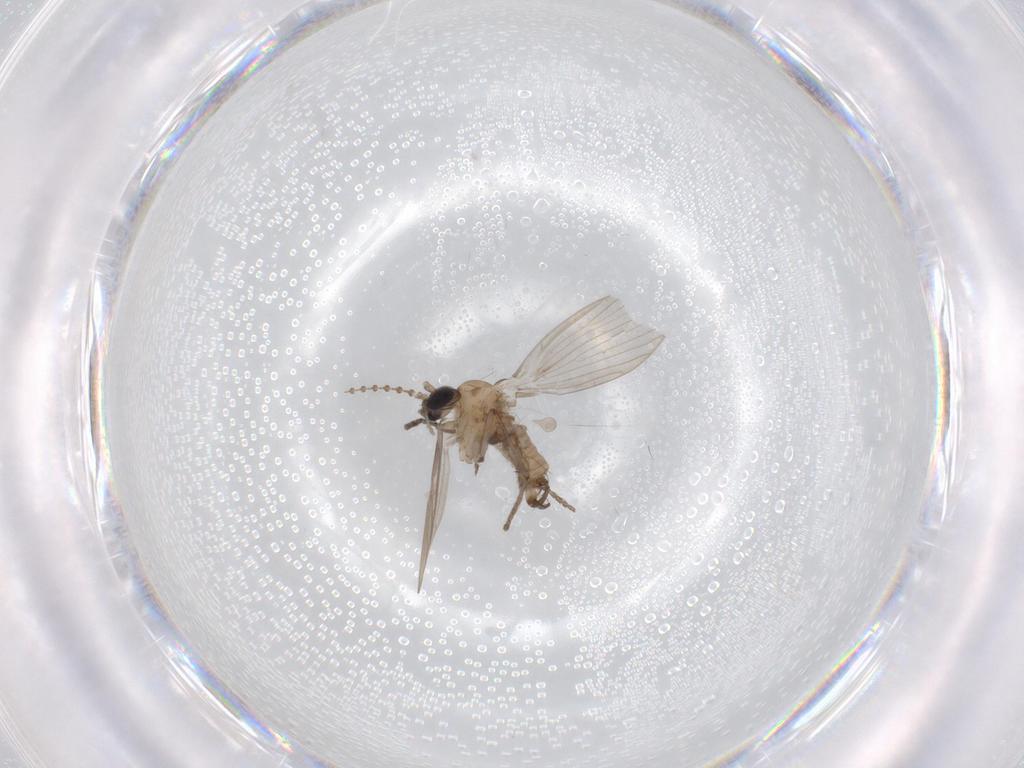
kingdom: Animalia
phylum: Arthropoda
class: Insecta
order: Diptera
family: Cecidomyiidae
